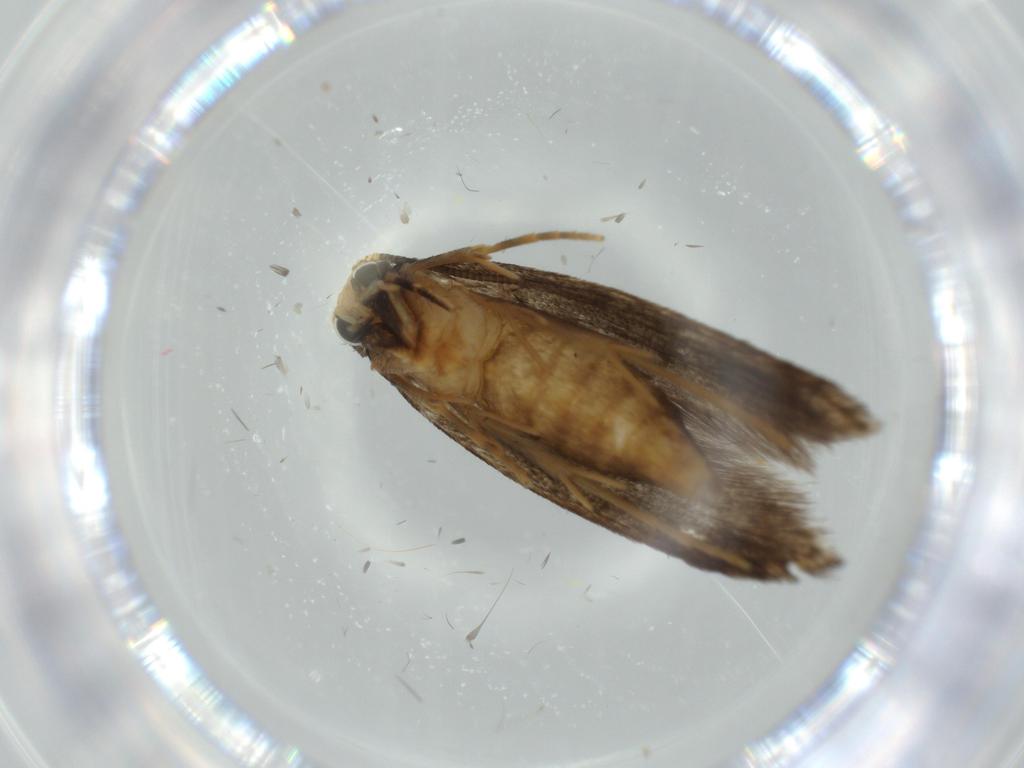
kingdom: Animalia
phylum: Arthropoda
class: Insecta
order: Lepidoptera
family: Tineidae
